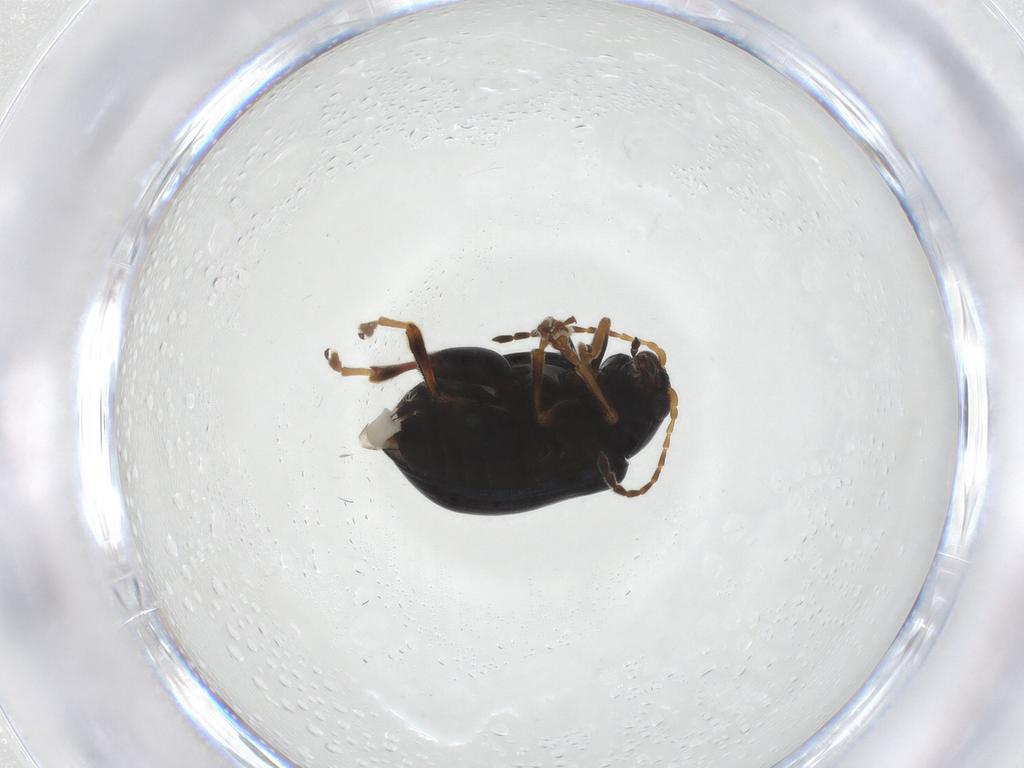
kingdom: Animalia
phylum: Arthropoda
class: Insecta
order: Coleoptera
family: Chrysomelidae
